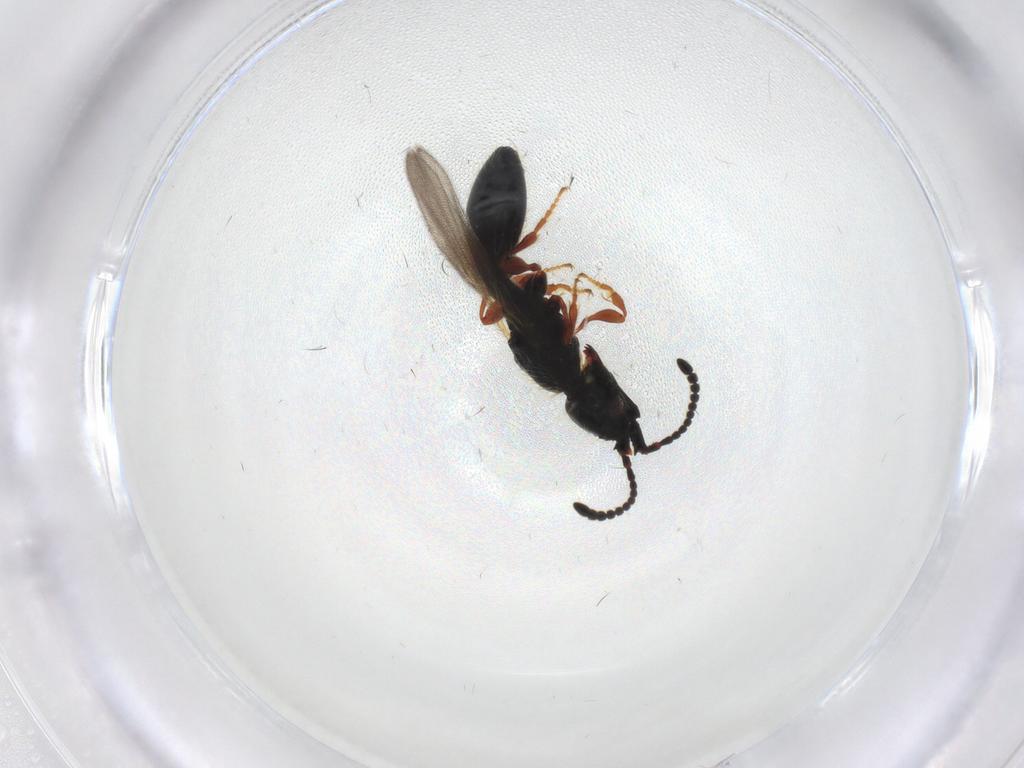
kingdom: Animalia
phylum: Arthropoda
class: Insecta
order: Hymenoptera
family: Diapriidae
